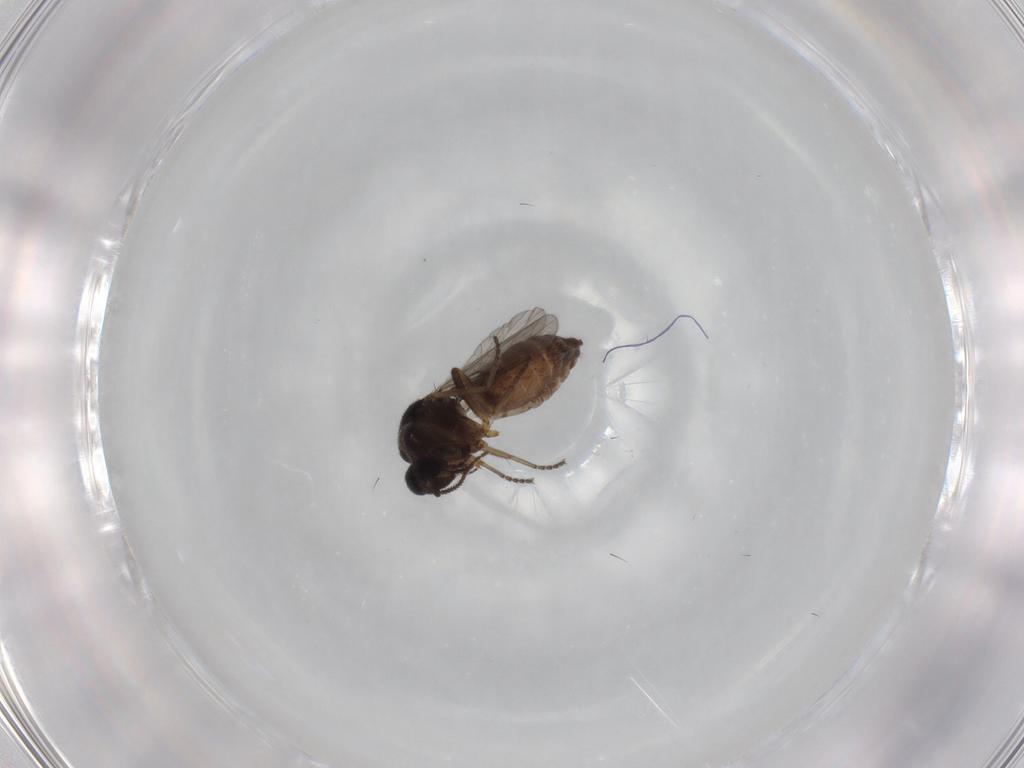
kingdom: Animalia
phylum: Arthropoda
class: Insecta
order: Diptera
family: Ceratopogonidae
